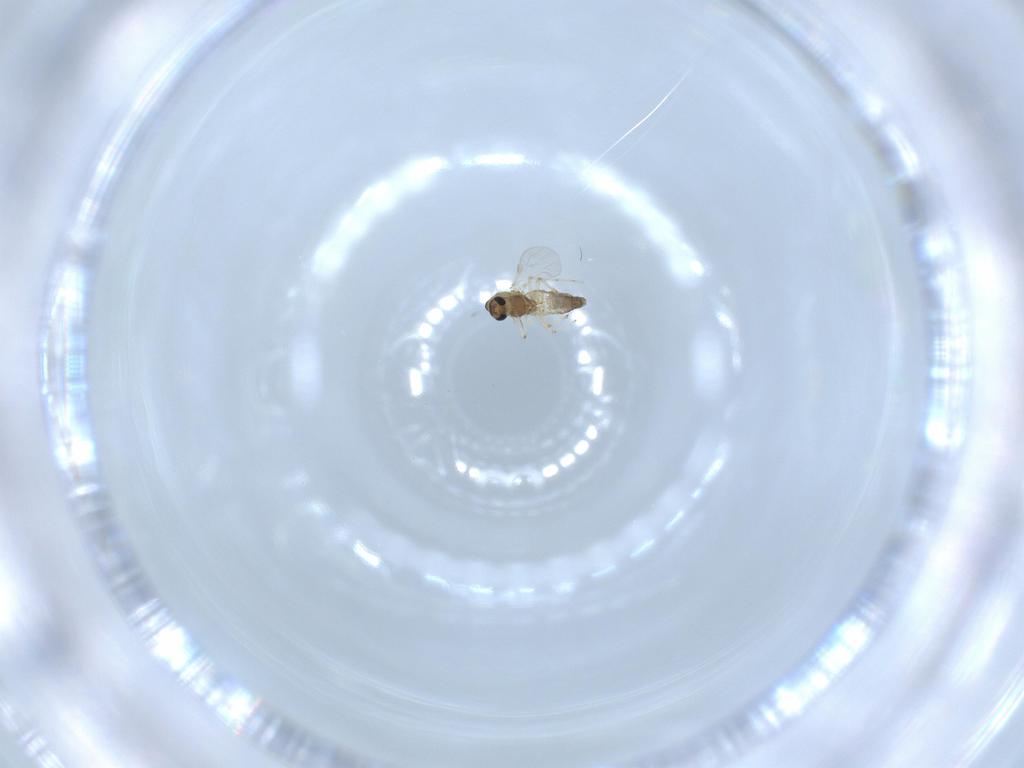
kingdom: Animalia
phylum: Arthropoda
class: Insecta
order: Diptera
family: Chironomidae
